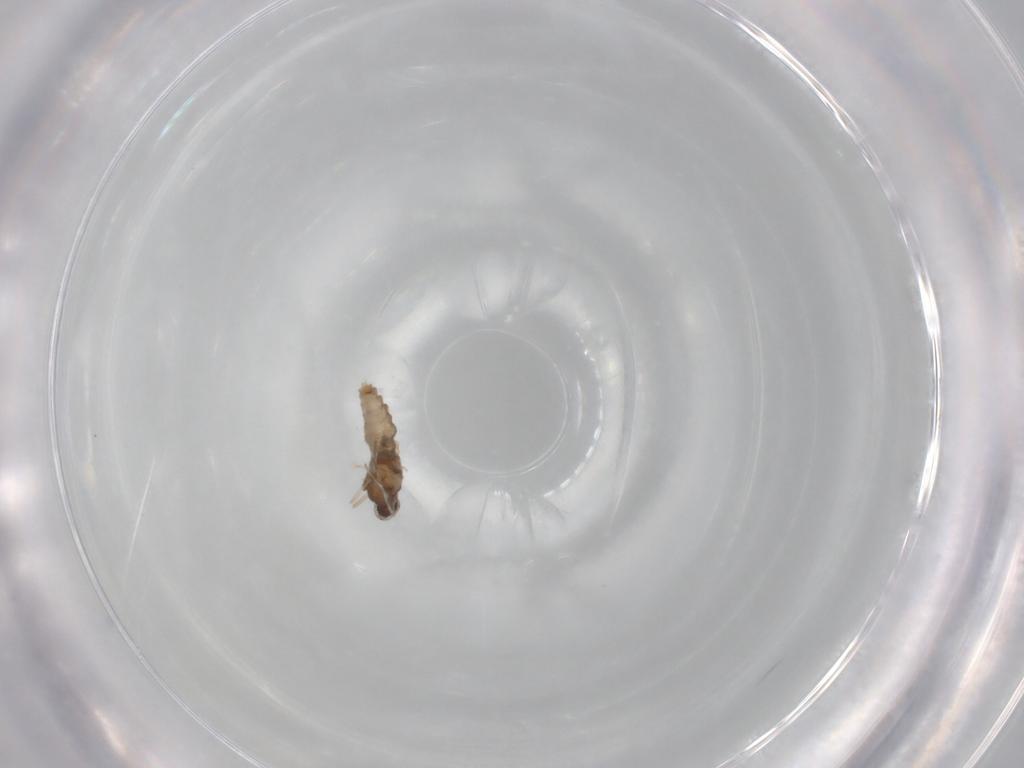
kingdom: Animalia
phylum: Arthropoda
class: Insecta
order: Diptera
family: Cecidomyiidae
